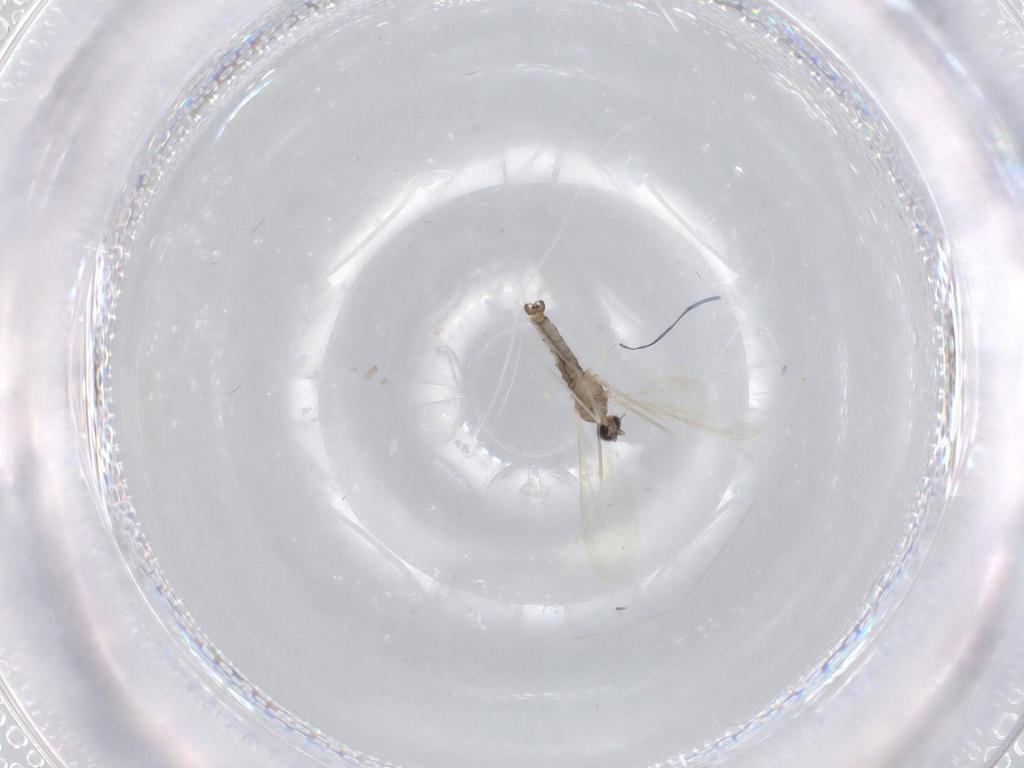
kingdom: Animalia
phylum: Arthropoda
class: Insecta
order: Diptera
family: Cecidomyiidae
